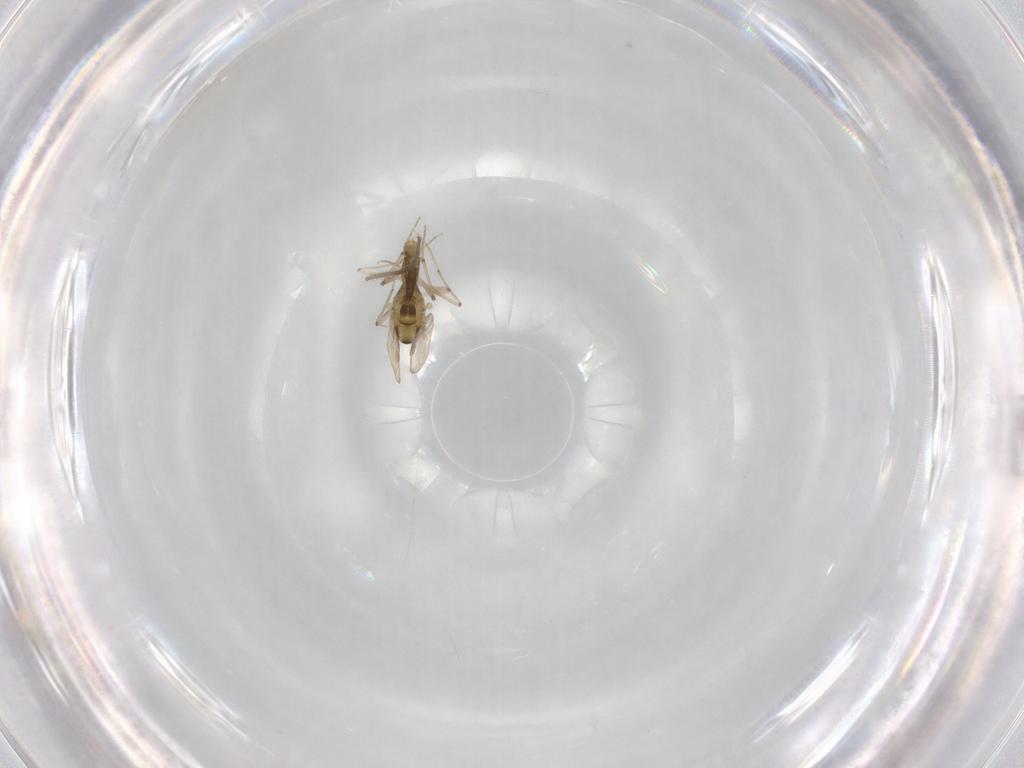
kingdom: Animalia
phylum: Arthropoda
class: Insecta
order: Diptera
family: Chironomidae
